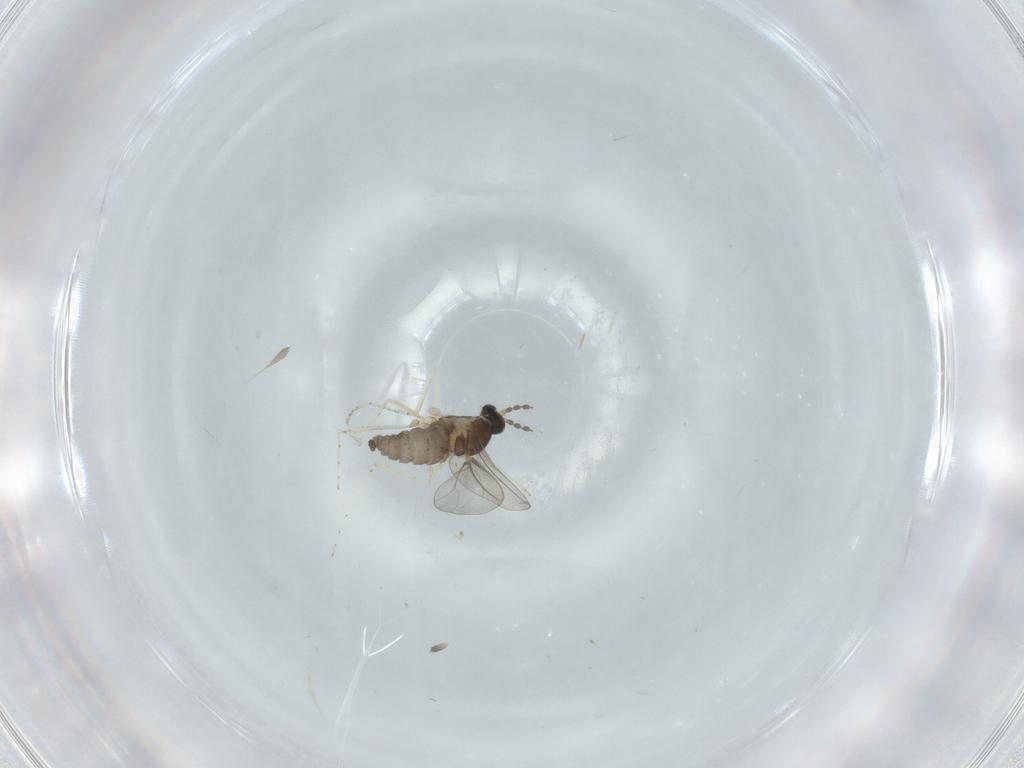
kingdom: Animalia
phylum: Arthropoda
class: Insecta
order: Diptera
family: Cecidomyiidae
